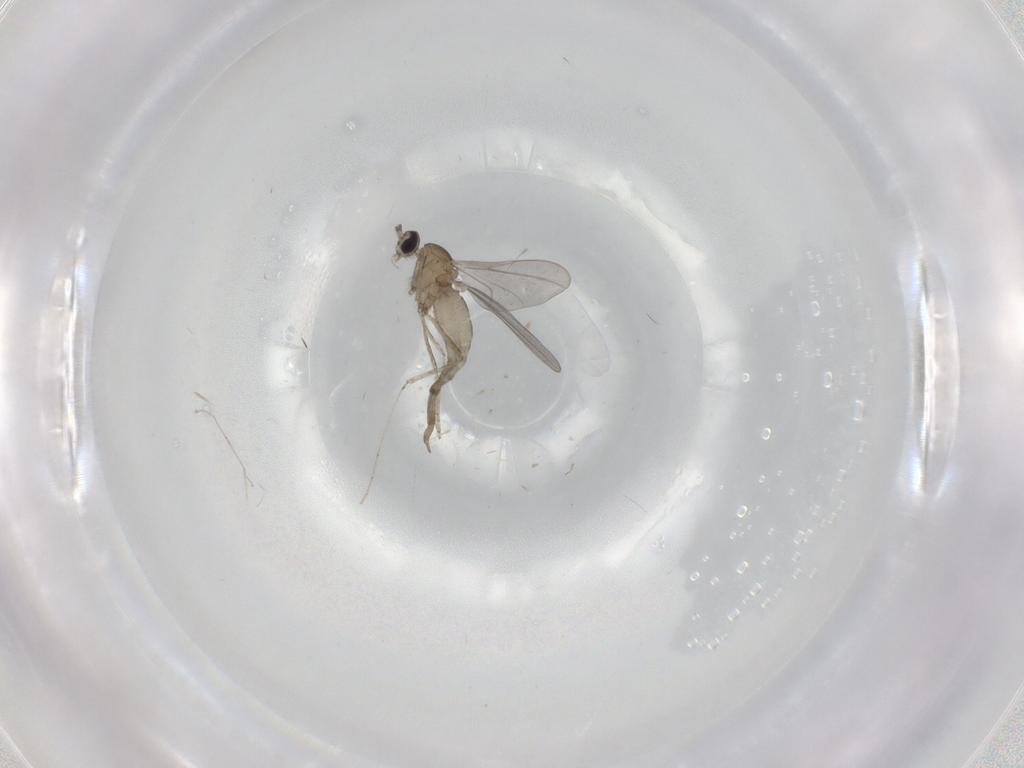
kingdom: Animalia
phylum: Arthropoda
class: Insecta
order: Diptera
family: Cecidomyiidae
